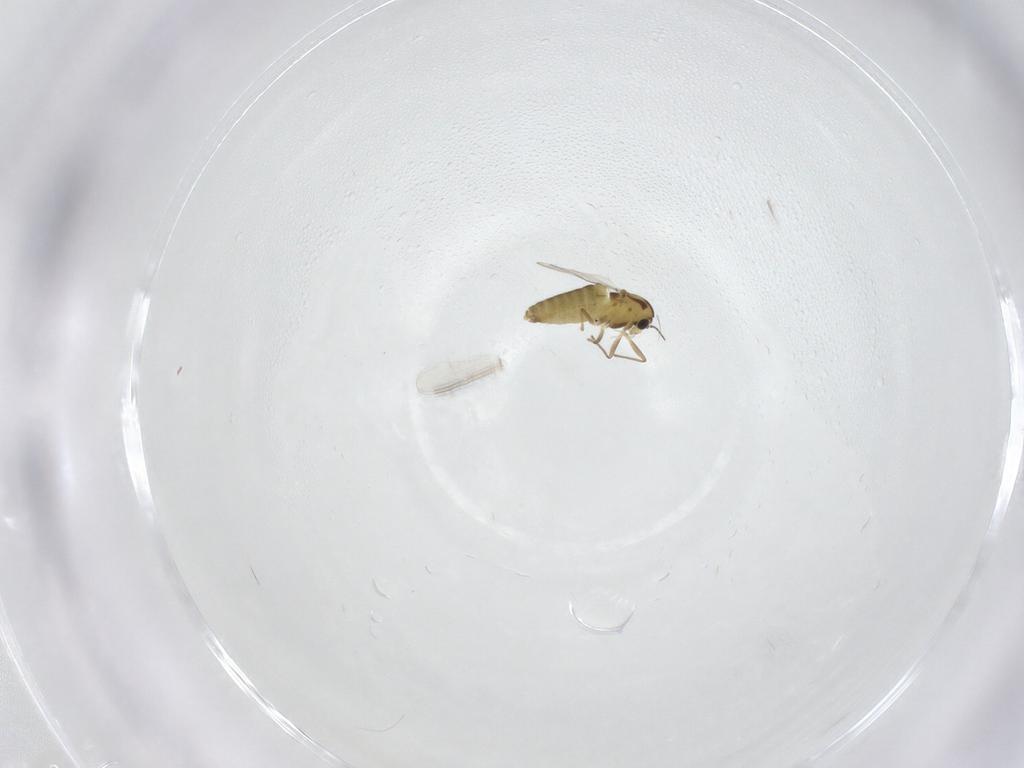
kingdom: Animalia
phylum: Arthropoda
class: Insecta
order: Diptera
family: Chironomidae
